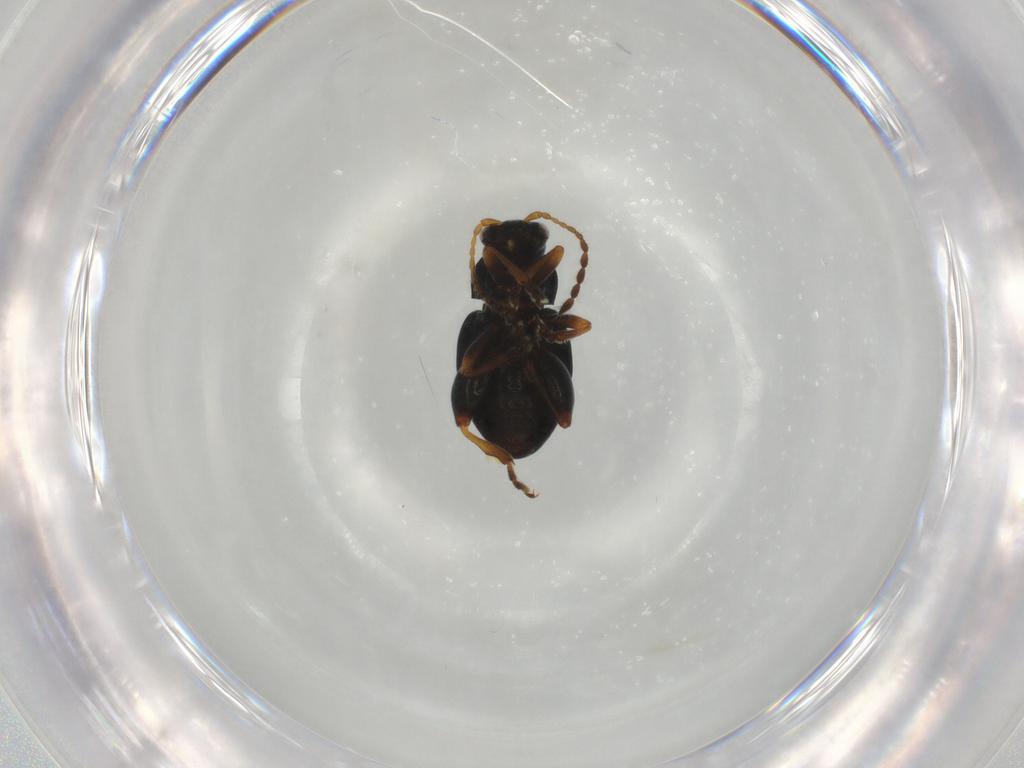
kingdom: Animalia
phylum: Arthropoda
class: Insecta
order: Coleoptera
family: Chrysomelidae
